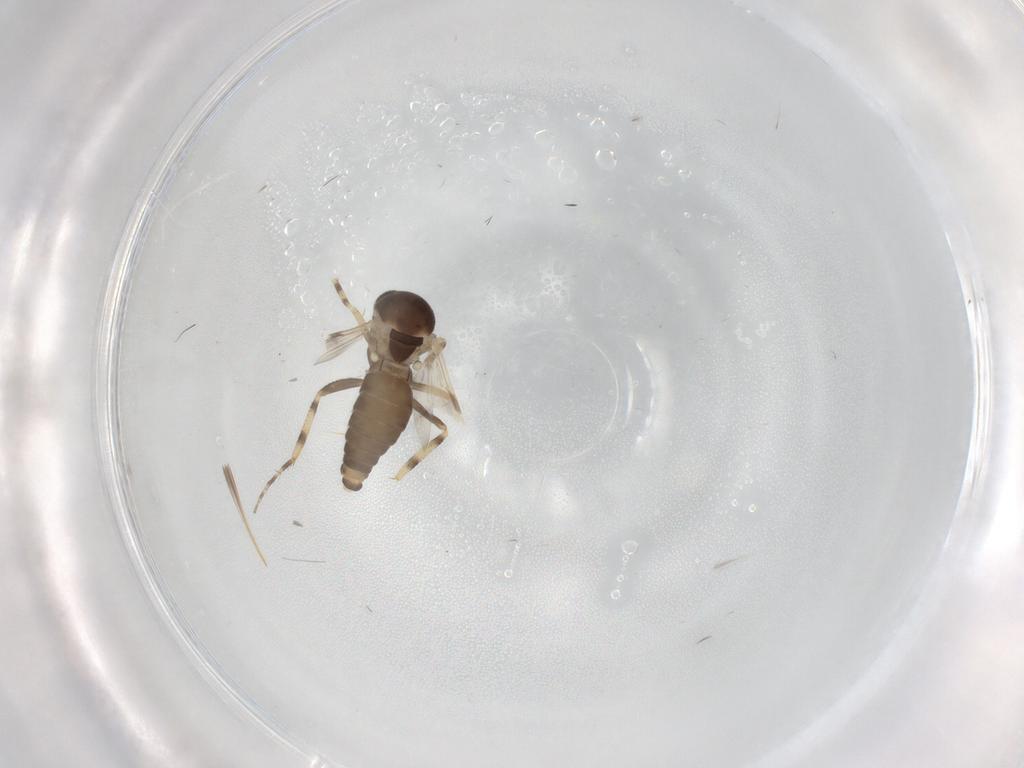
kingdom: Animalia
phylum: Arthropoda
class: Insecta
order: Diptera
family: Ceratopogonidae
